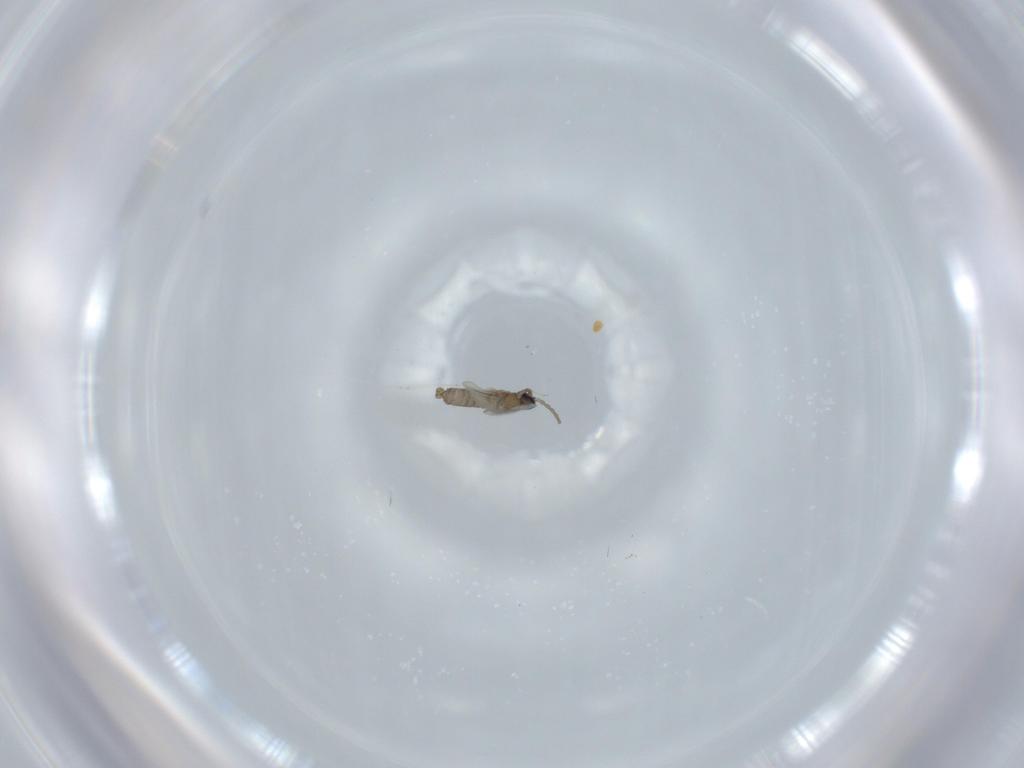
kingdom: Animalia
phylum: Arthropoda
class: Insecta
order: Diptera
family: Cecidomyiidae
